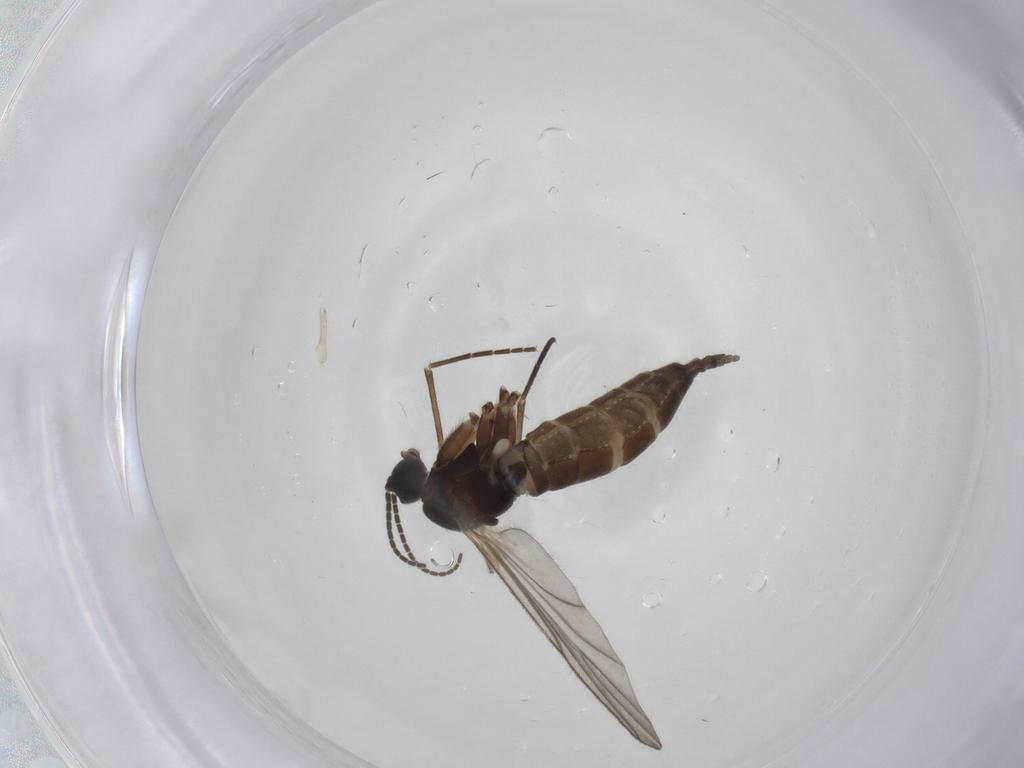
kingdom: Animalia
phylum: Arthropoda
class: Insecta
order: Diptera
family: Sciaridae
